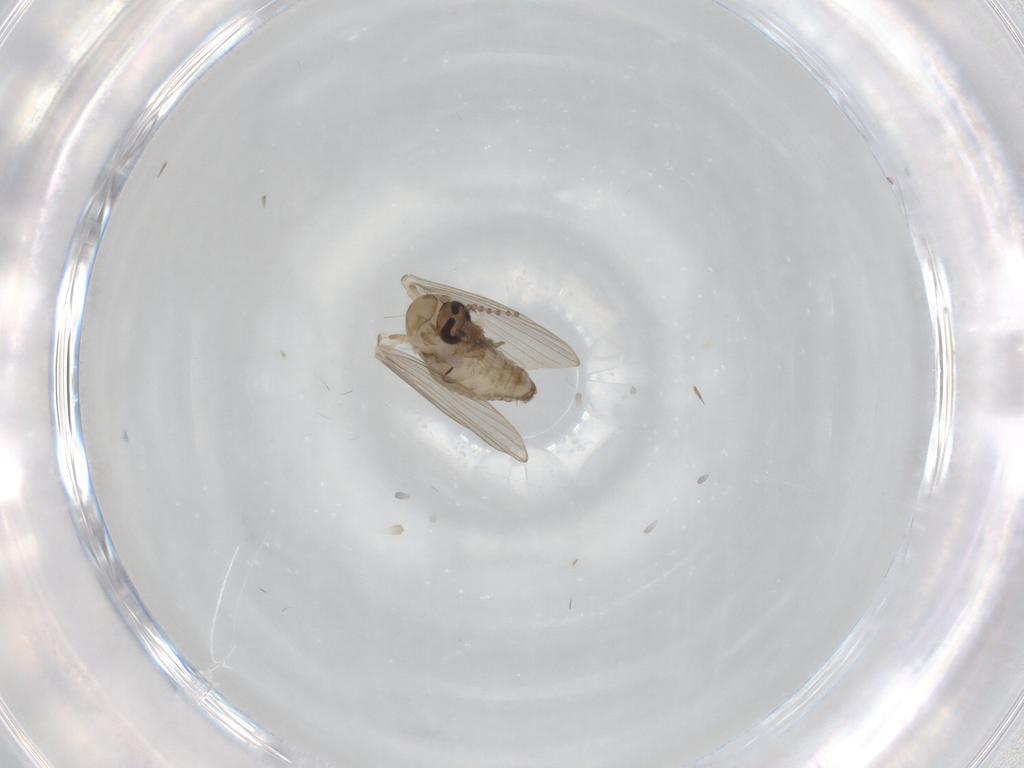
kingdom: Animalia
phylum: Arthropoda
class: Insecta
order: Diptera
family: Psychodidae
